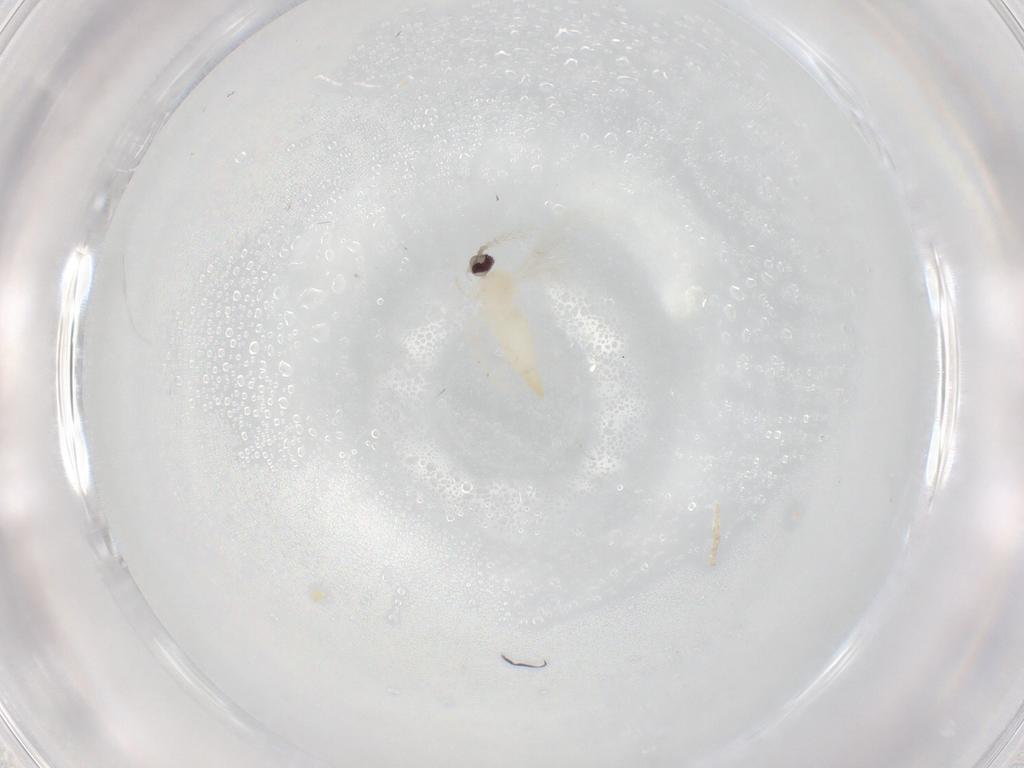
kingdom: Animalia
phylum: Arthropoda
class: Insecta
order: Diptera
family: Cecidomyiidae
